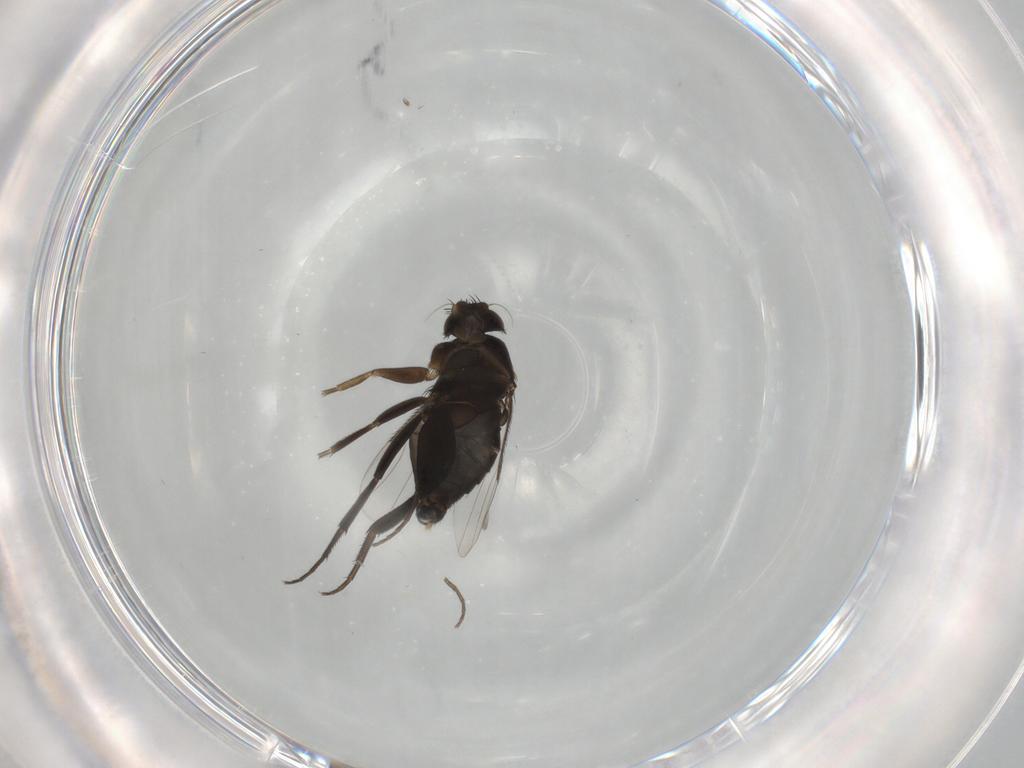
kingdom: Animalia
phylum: Arthropoda
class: Insecta
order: Diptera
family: Phoridae
